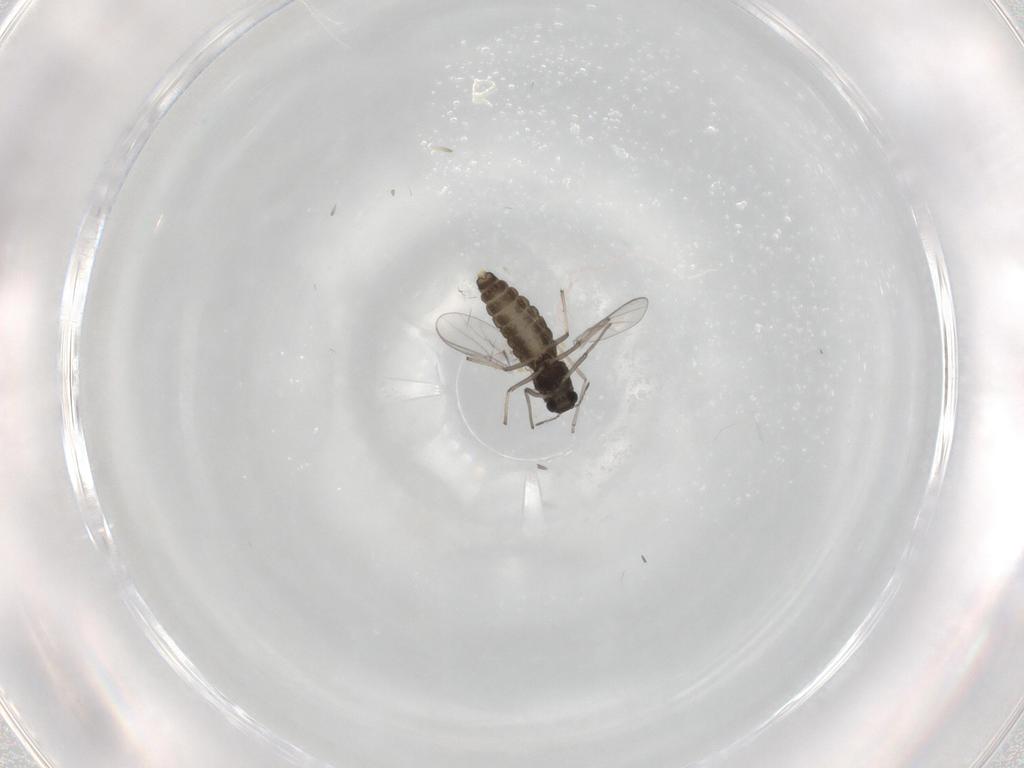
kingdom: Animalia
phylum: Arthropoda
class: Insecta
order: Diptera
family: Chironomidae
